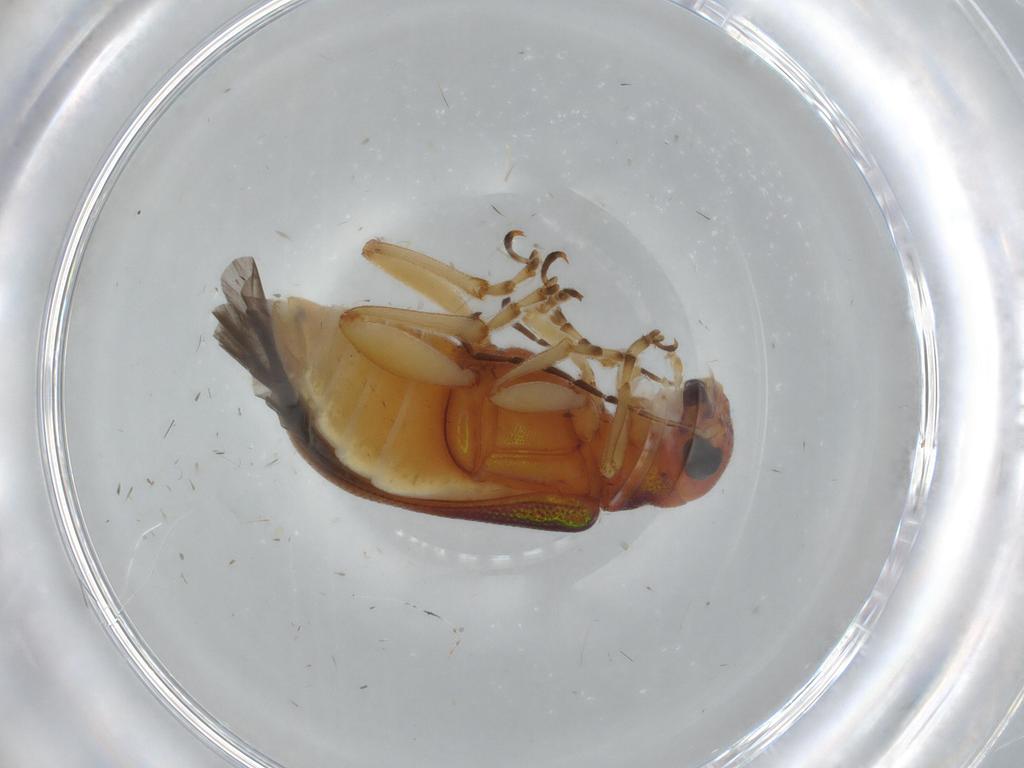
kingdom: Animalia
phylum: Arthropoda
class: Insecta
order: Coleoptera
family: Chrysomelidae
